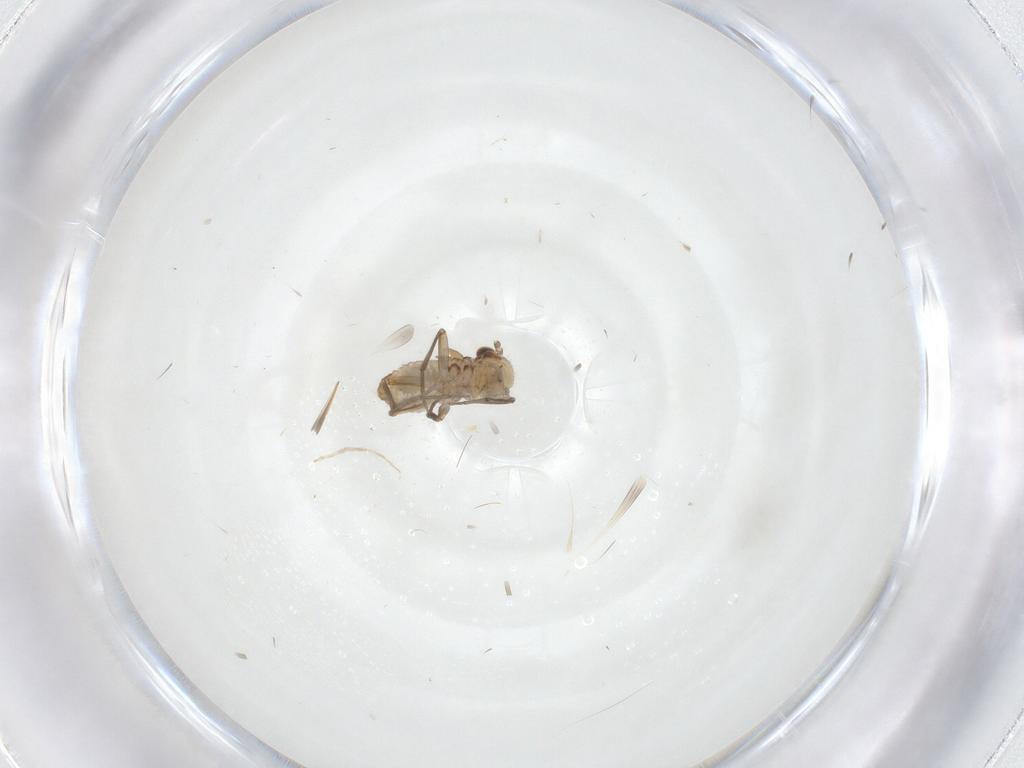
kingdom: Animalia
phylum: Arthropoda
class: Insecta
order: Psocodea
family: Mesopsocidae
